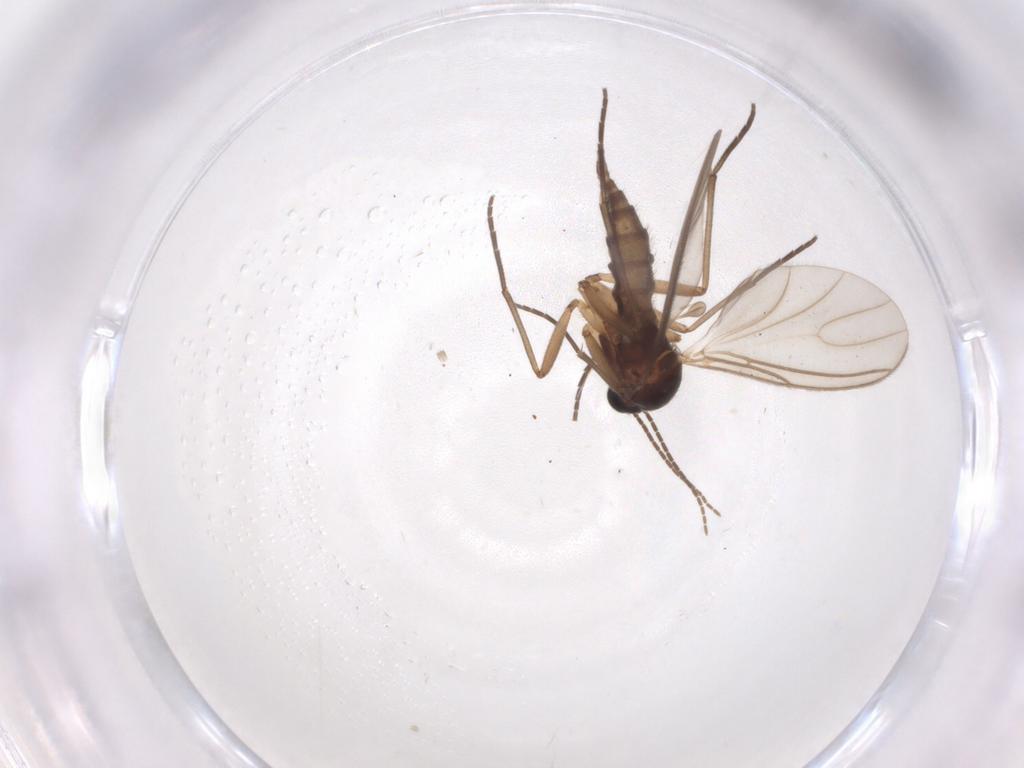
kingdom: Animalia
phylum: Arthropoda
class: Insecta
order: Diptera
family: Sciaridae
